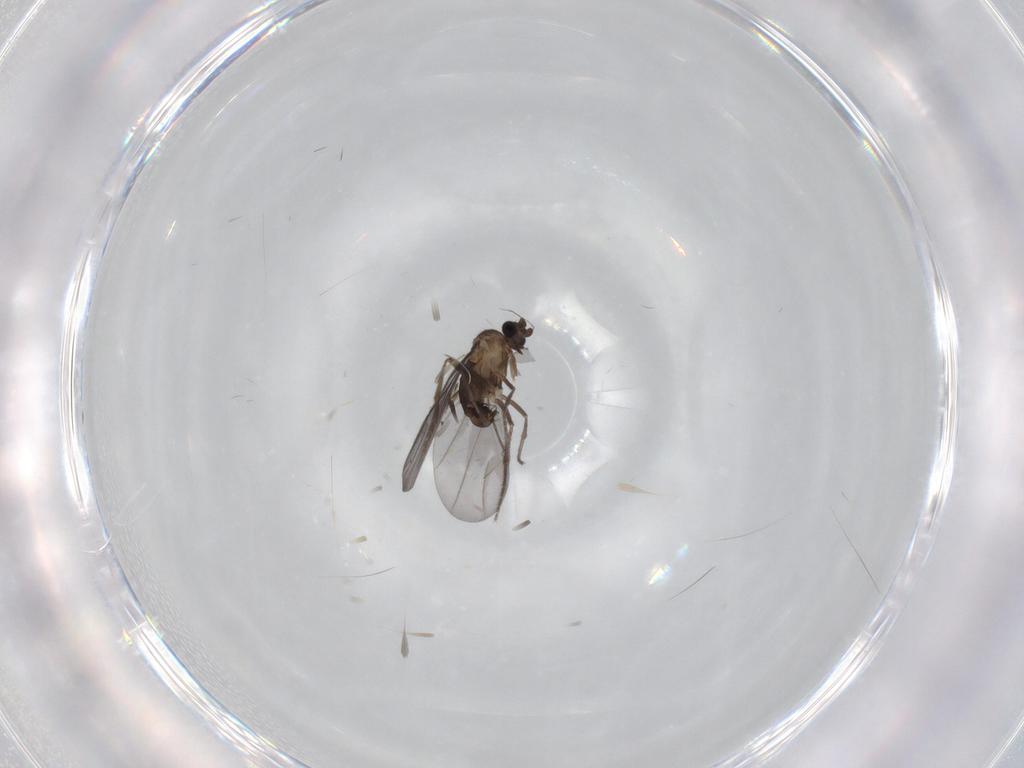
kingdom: Animalia
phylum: Arthropoda
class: Insecta
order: Diptera
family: Phoridae
